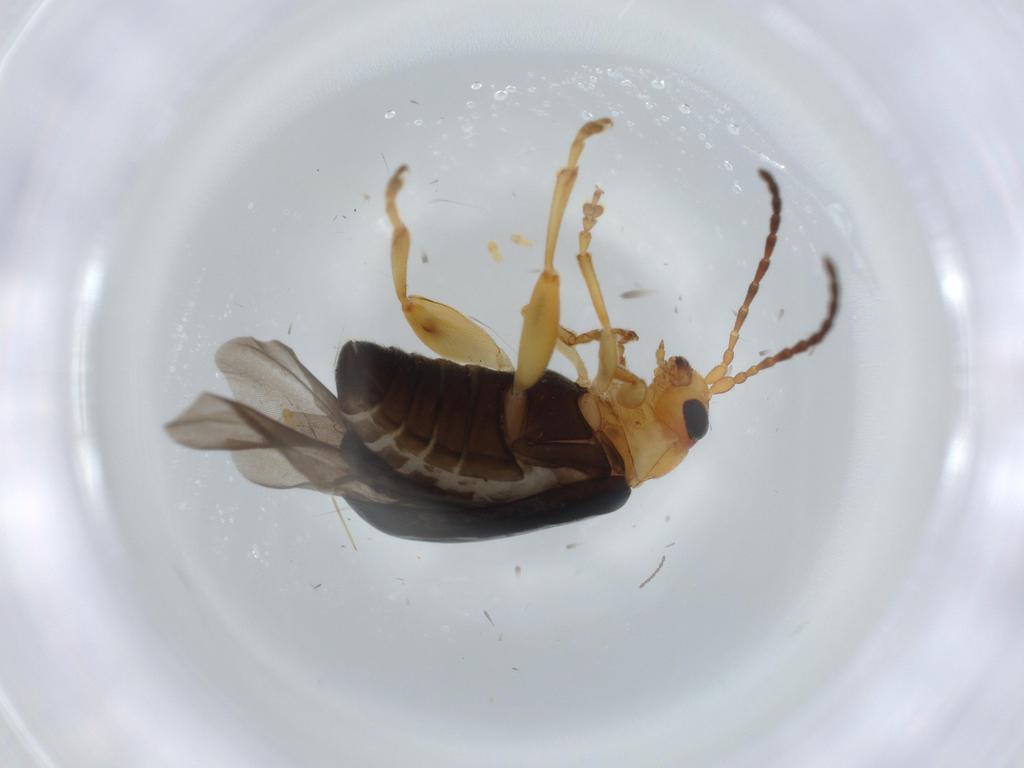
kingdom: Animalia
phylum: Arthropoda
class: Insecta
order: Coleoptera
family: Chrysomelidae
